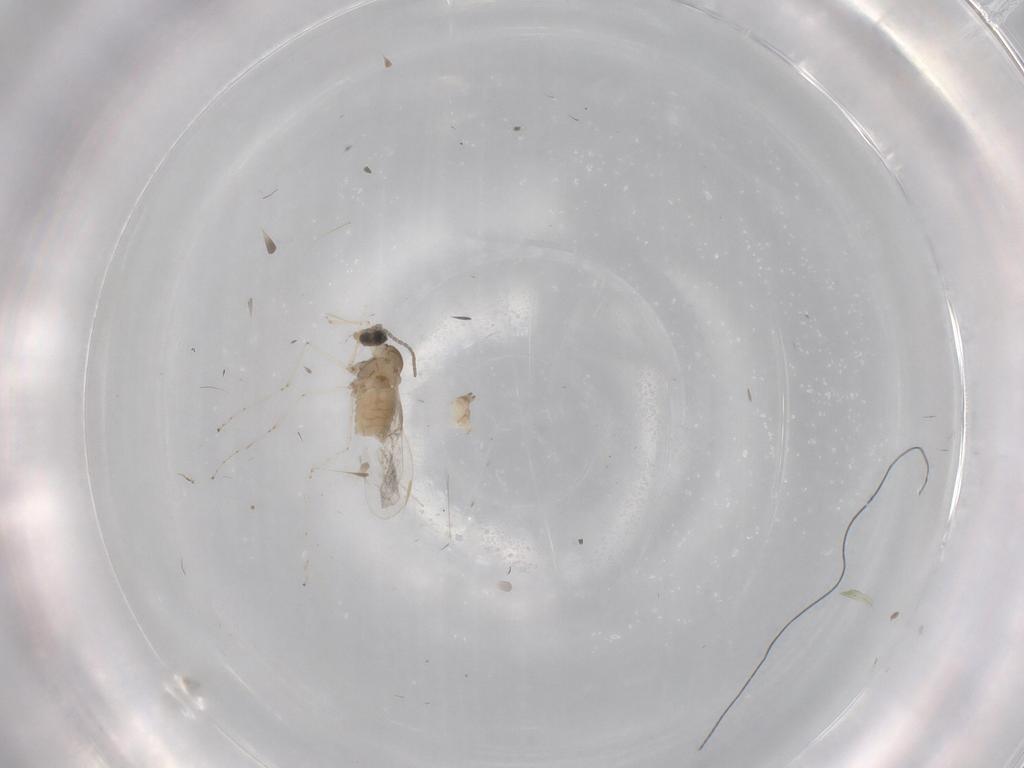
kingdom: Animalia
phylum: Arthropoda
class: Insecta
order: Diptera
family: Cecidomyiidae
